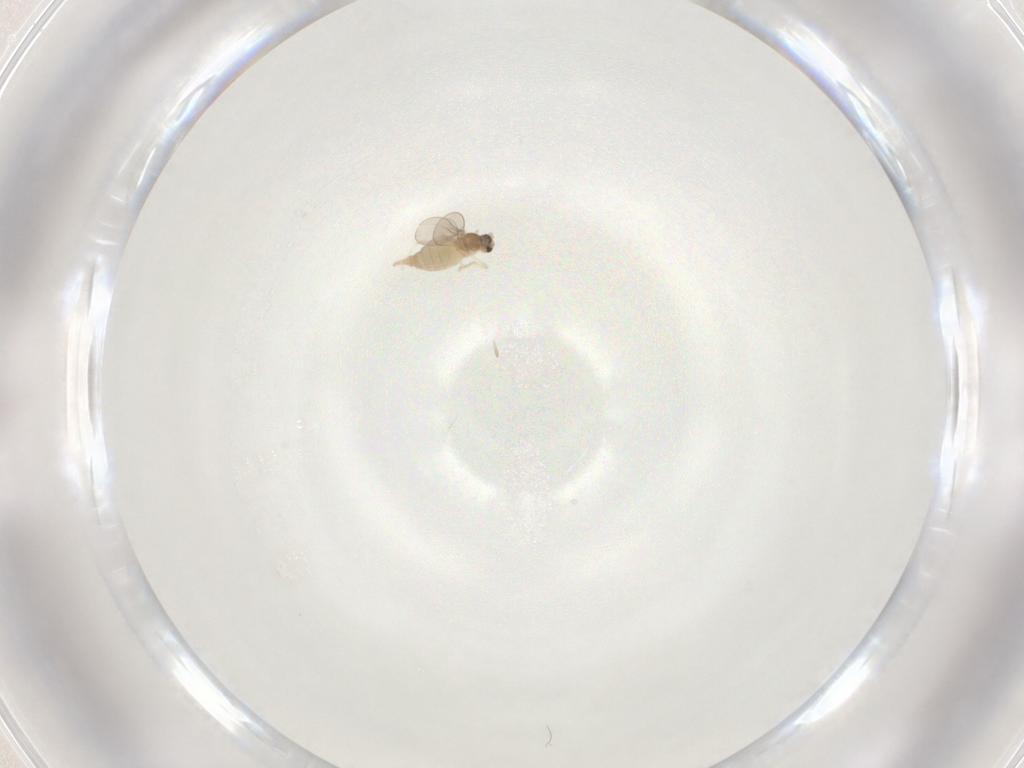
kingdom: Animalia
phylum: Arthropoda
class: Insecta
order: Diptera
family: Cecidomyiidae
